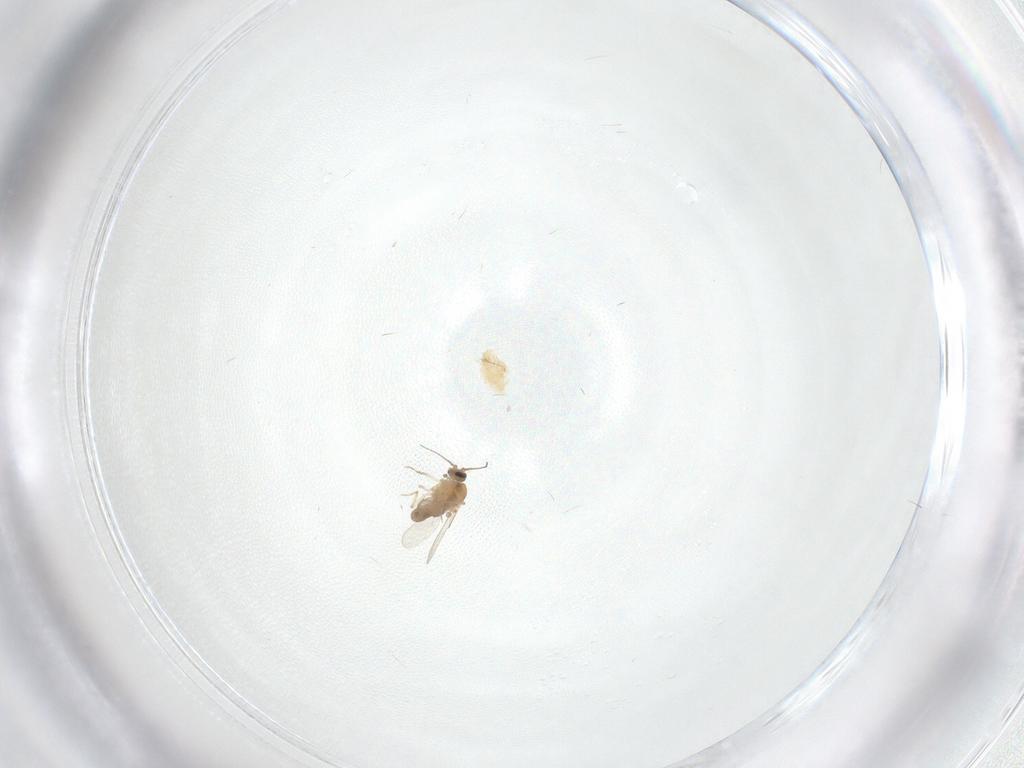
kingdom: Animalia
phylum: Arthropoda
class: Insecta
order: Diptera
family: Ceratopogonidae
